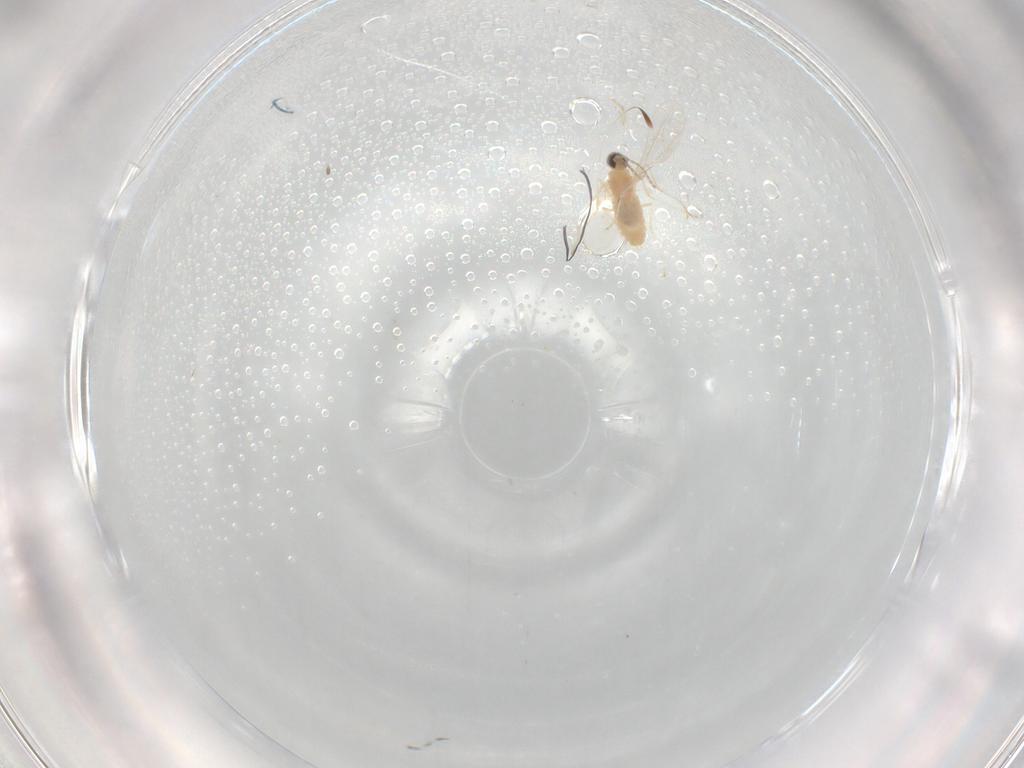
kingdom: Animalia
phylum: Arthropoda
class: Insecta
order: Diptera
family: Cecidomyiidae
